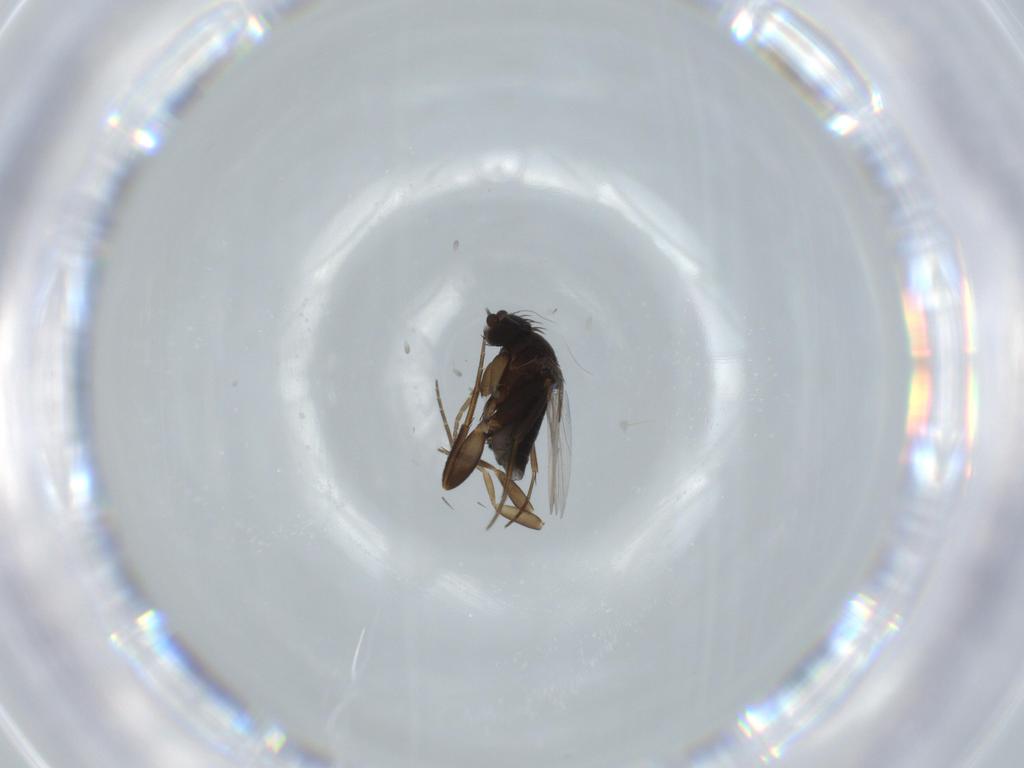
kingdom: Animalia
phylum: Arthropoda
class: Insecta
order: Diptera
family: Phoridae
